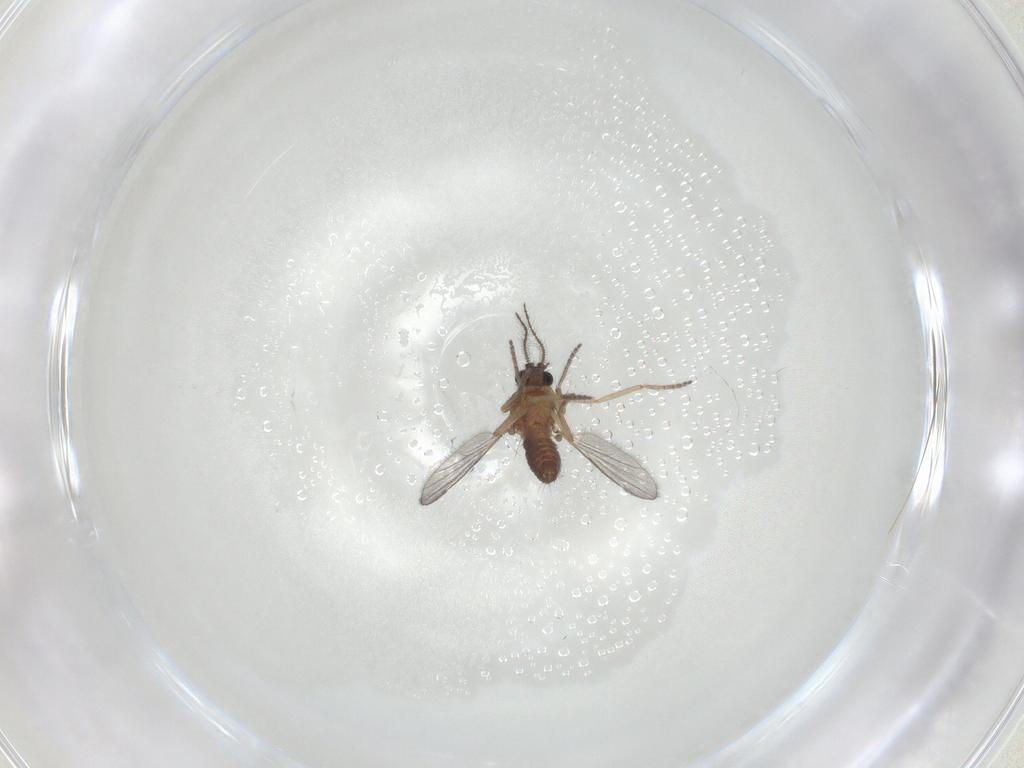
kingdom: Animalia
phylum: Arthropoda
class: Insecta
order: Diptera
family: Ceratopogonidae
